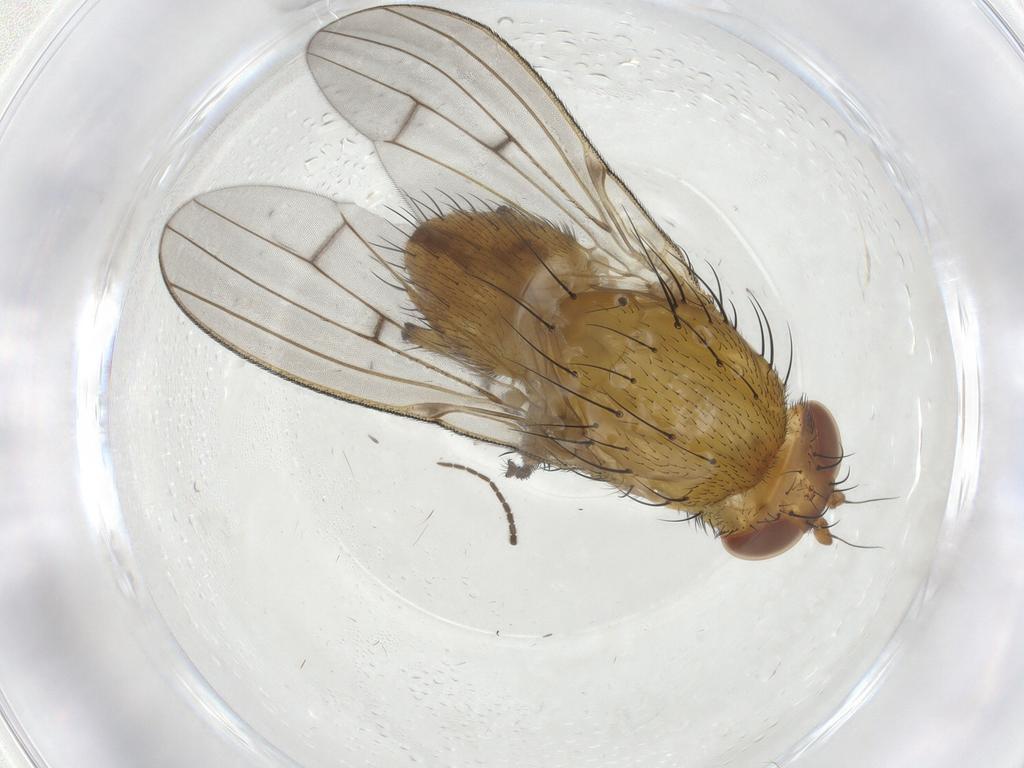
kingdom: Animalia
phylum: Arthropoda
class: Insecta
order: Diptera
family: Sciaridae
